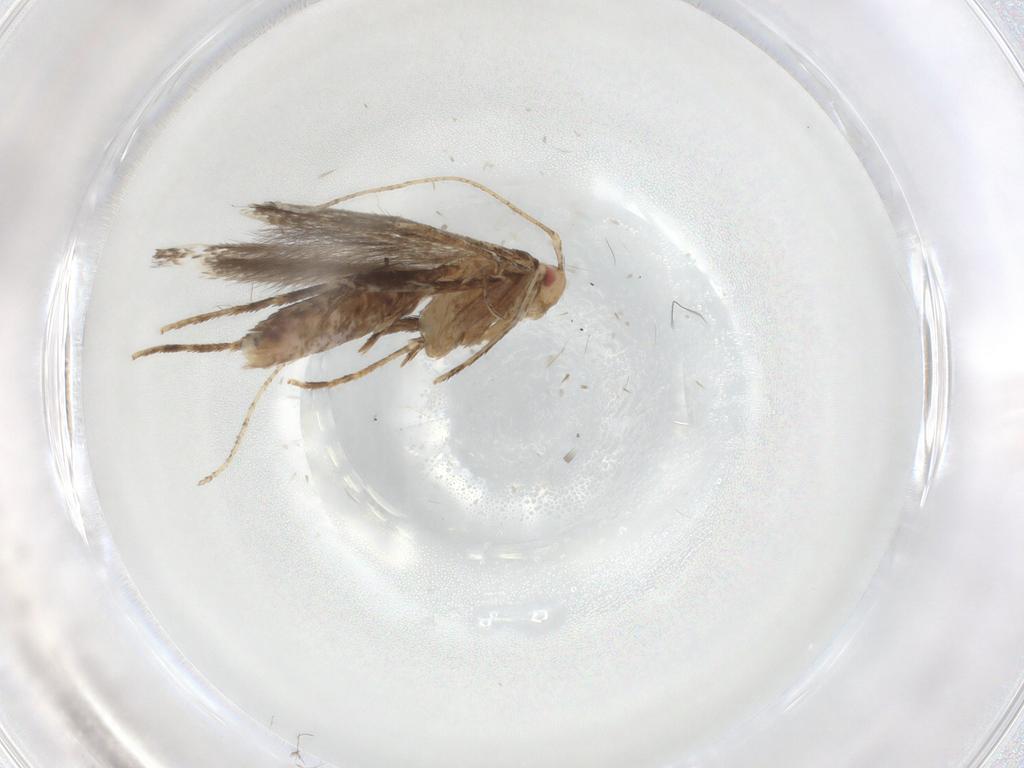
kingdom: Animalia
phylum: Arthropoda
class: Insecta
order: Lepidoptera
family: Cosmopterigidae
